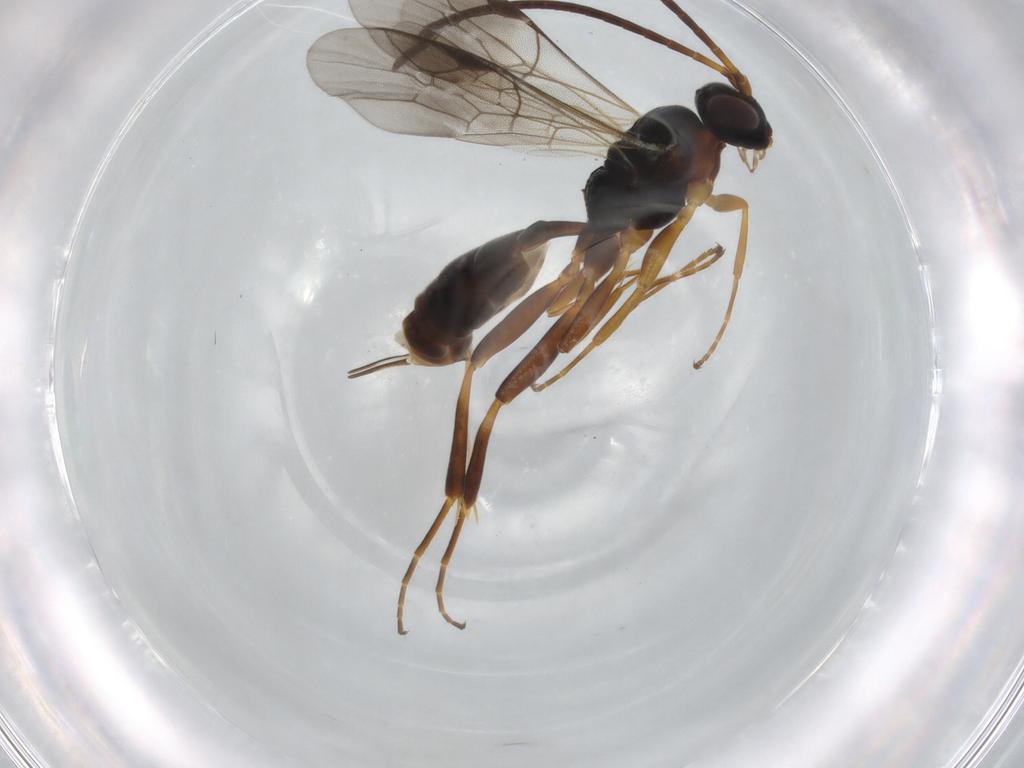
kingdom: Animalia
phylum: Arthropoda
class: Insecta
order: Hymenoptera
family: Ichneumonidae
